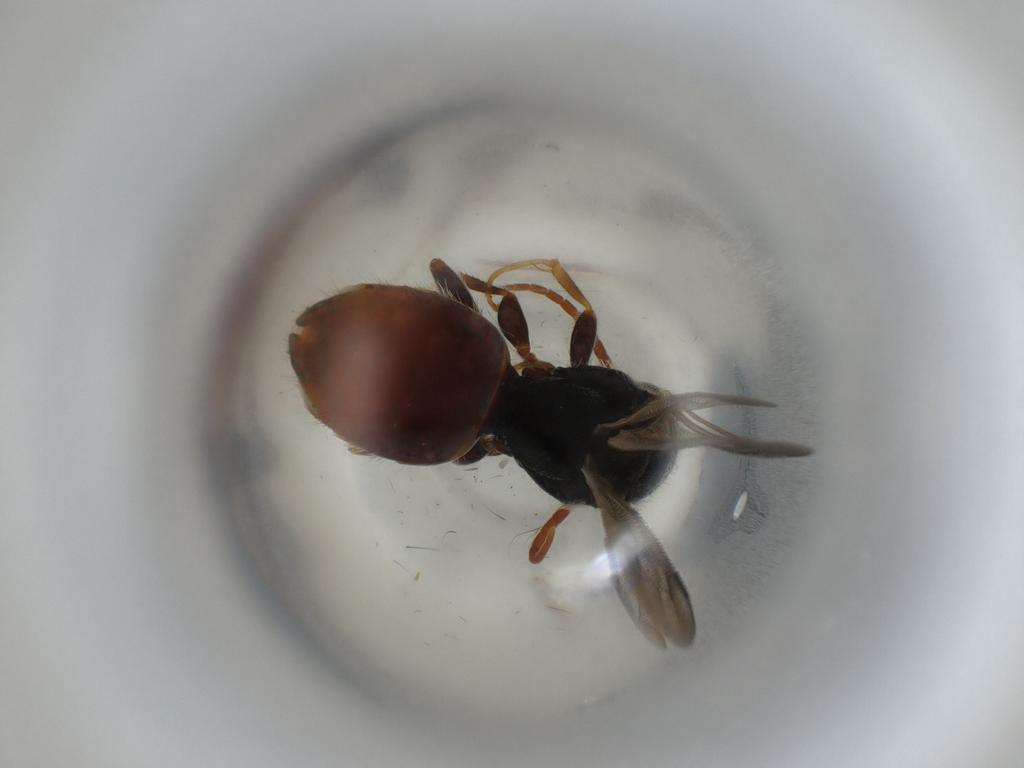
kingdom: Animalia
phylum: Arthropoda
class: Insecta
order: Hymenoptera
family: Bethylidae
